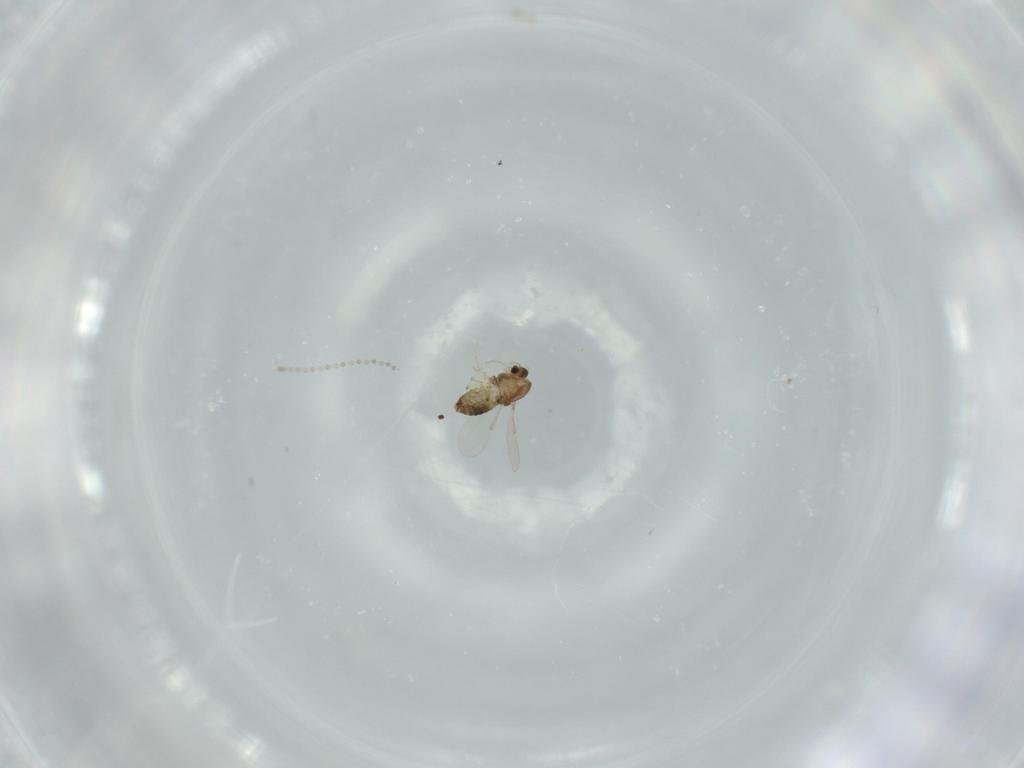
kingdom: Animalia
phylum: Arthropoda
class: Insecta
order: Diptera
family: Chironomidae
